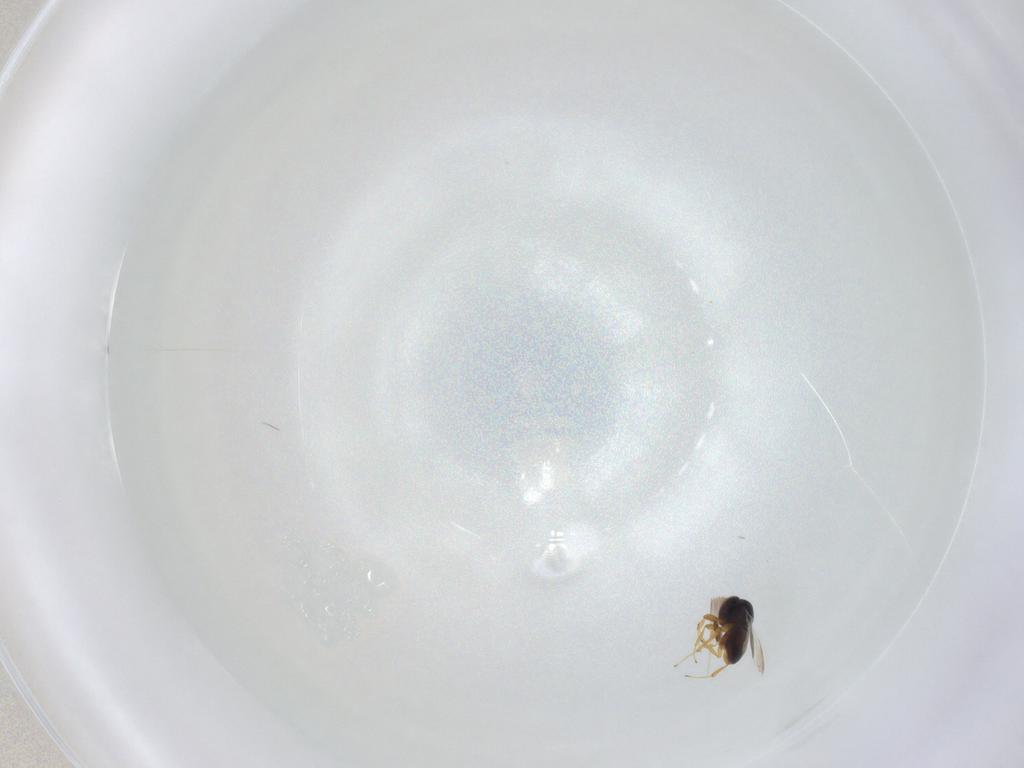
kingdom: Animalia
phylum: Arthropoda
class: Insecta
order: Hymenoptera
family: Platygastridae
